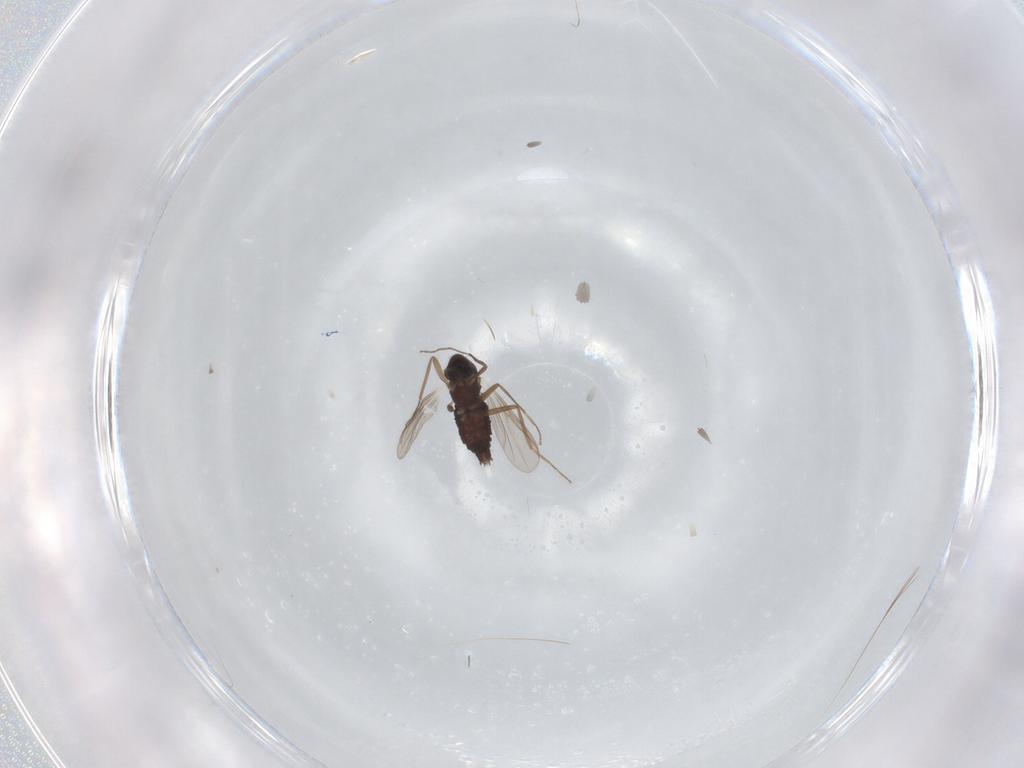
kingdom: Animalia
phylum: Arthropoda
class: Insecta
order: Diptera
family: Chironomidae
